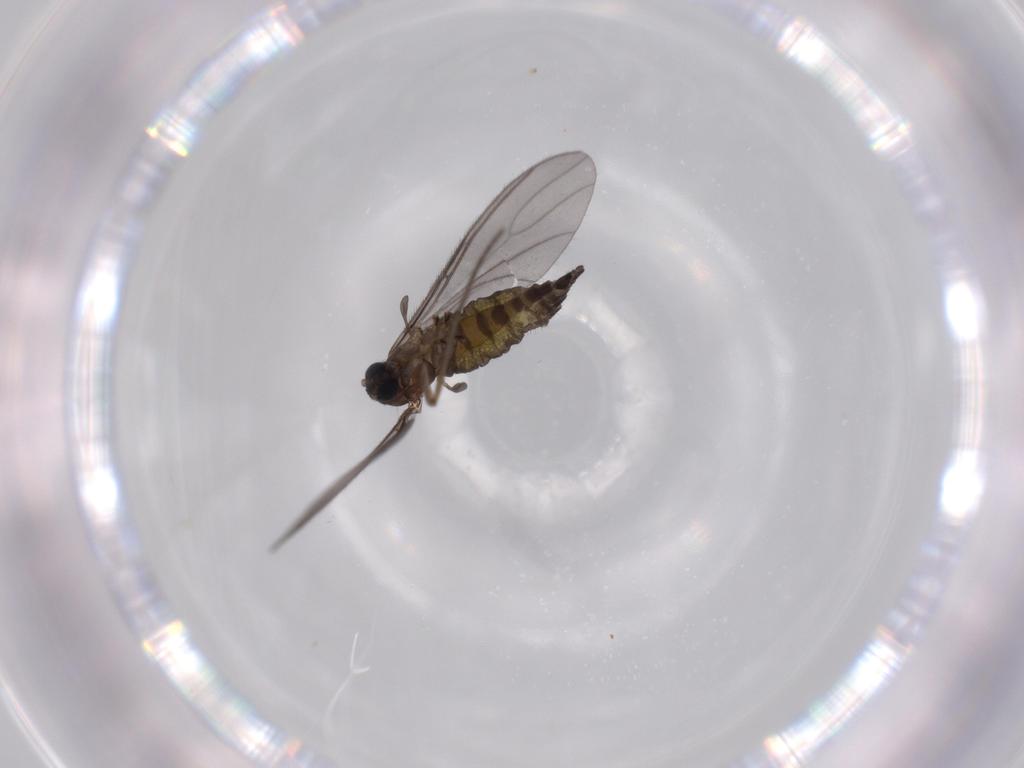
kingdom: Animalia
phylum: Arthropoda
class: Insecta
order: Diptera
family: Sciaridae
